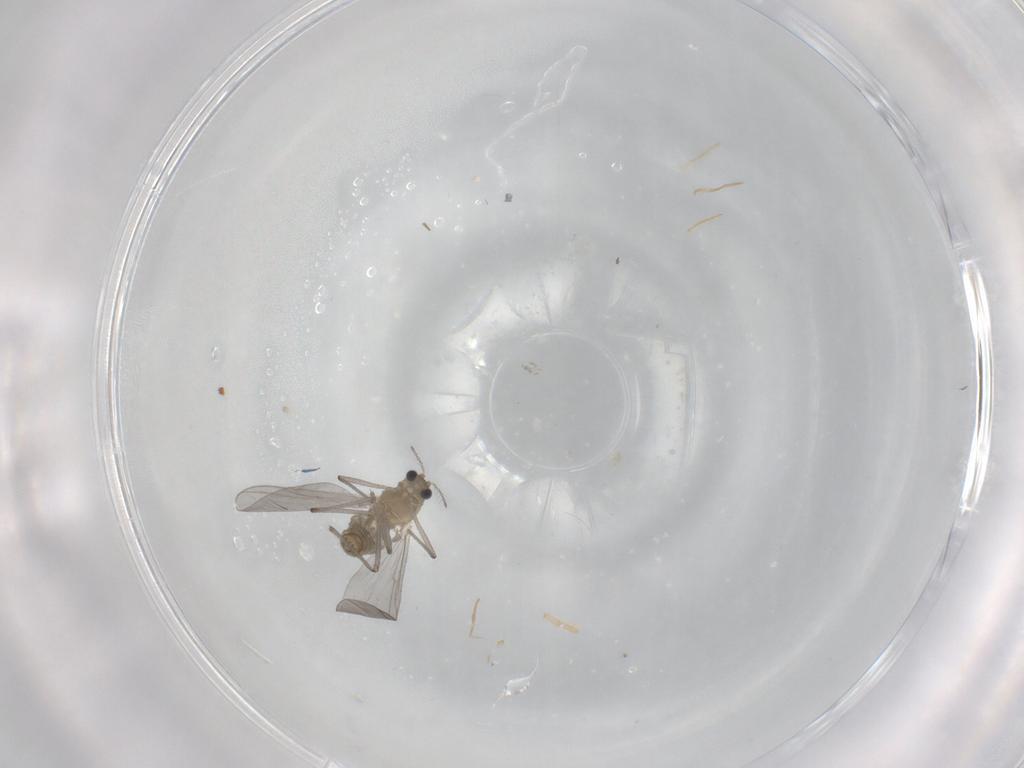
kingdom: Animalia
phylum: Arthropoda
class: Insecta
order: Diptera
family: Chironomidae
